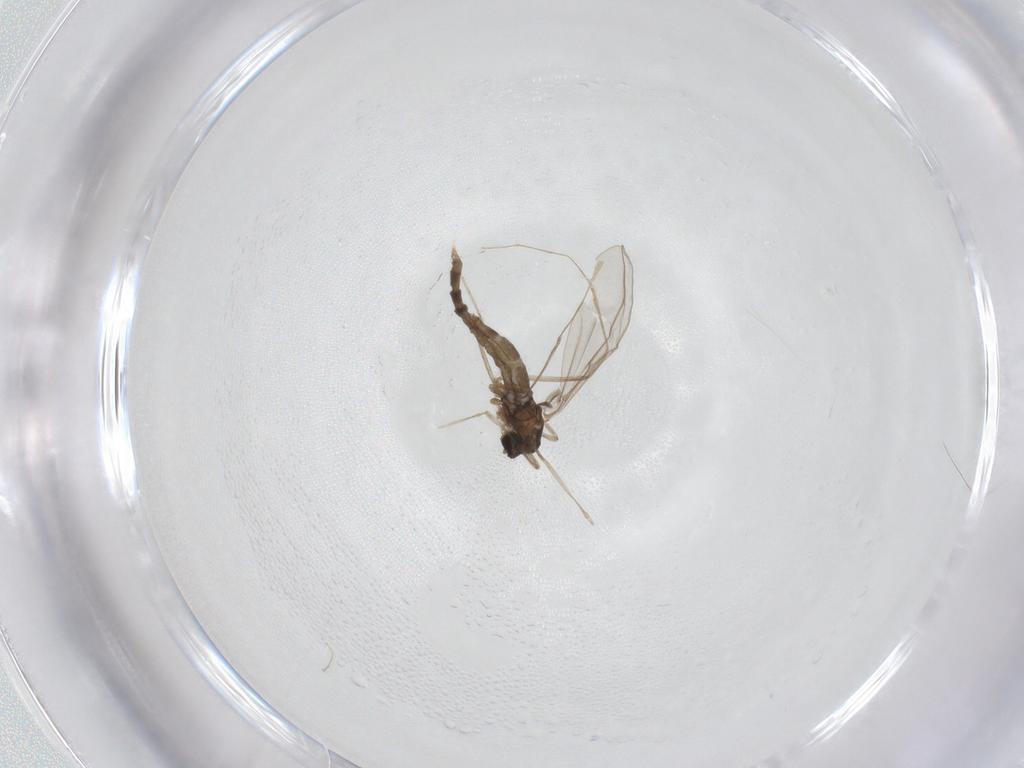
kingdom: Animalia
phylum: Arthropoda
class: Insecta
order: Diptera
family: Cecidomyiidae
